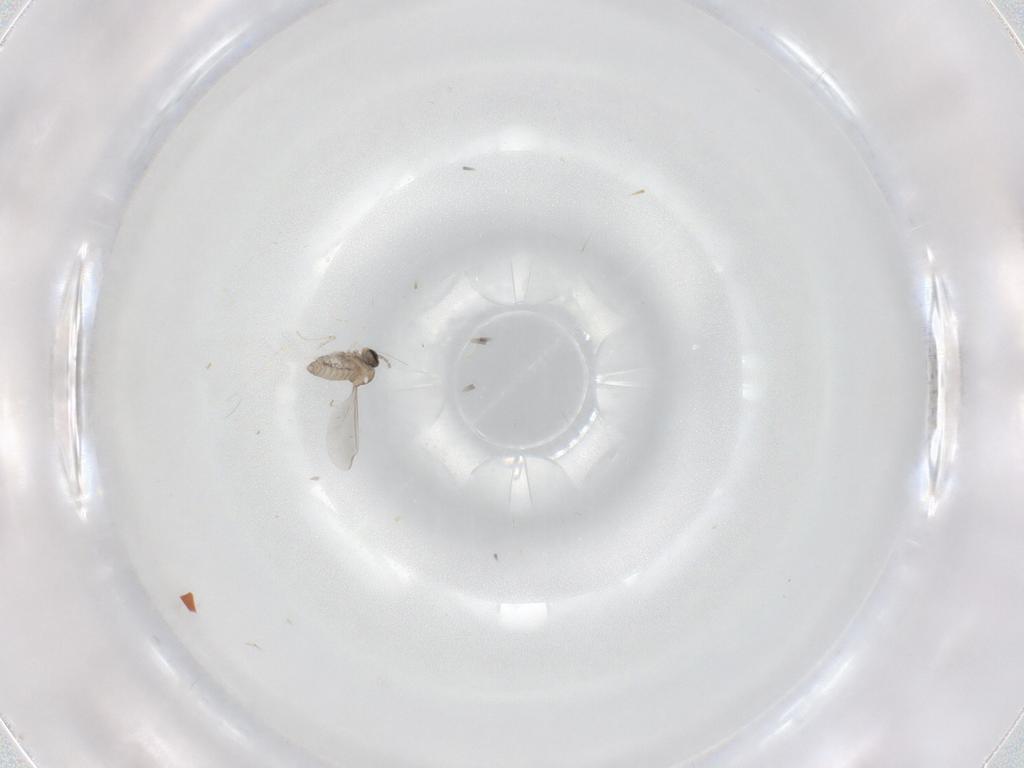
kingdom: Animalia
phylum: Arthropoda
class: Insecta
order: Diptera
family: Cecidomyiidae
